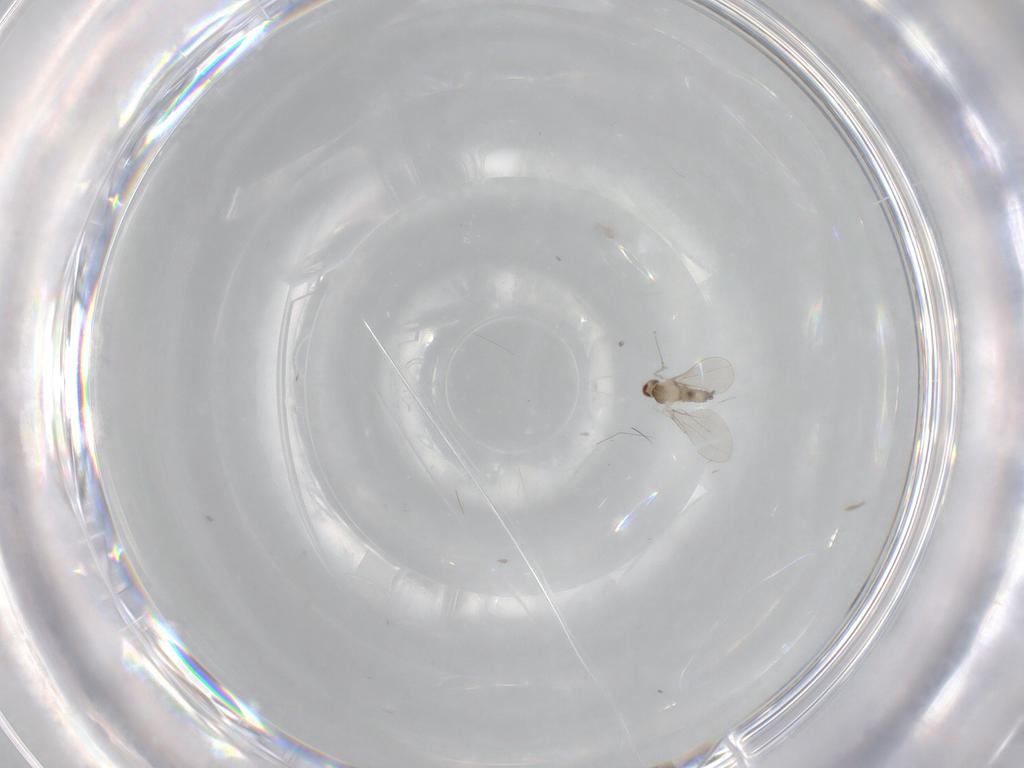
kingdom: Animalia
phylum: Arthropoda
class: Insecta
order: Diptera
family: Cecidomyiidae
